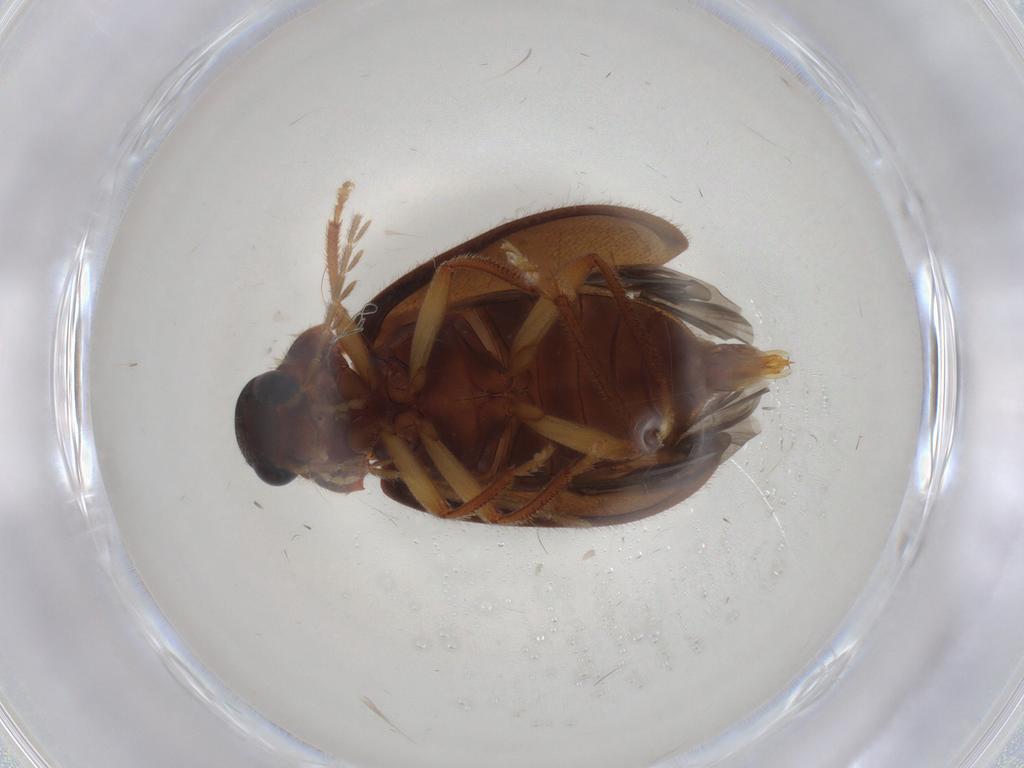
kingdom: Animalia
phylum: Arthropoda
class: Insecta
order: Coleoptera
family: Ptilodactylidae
